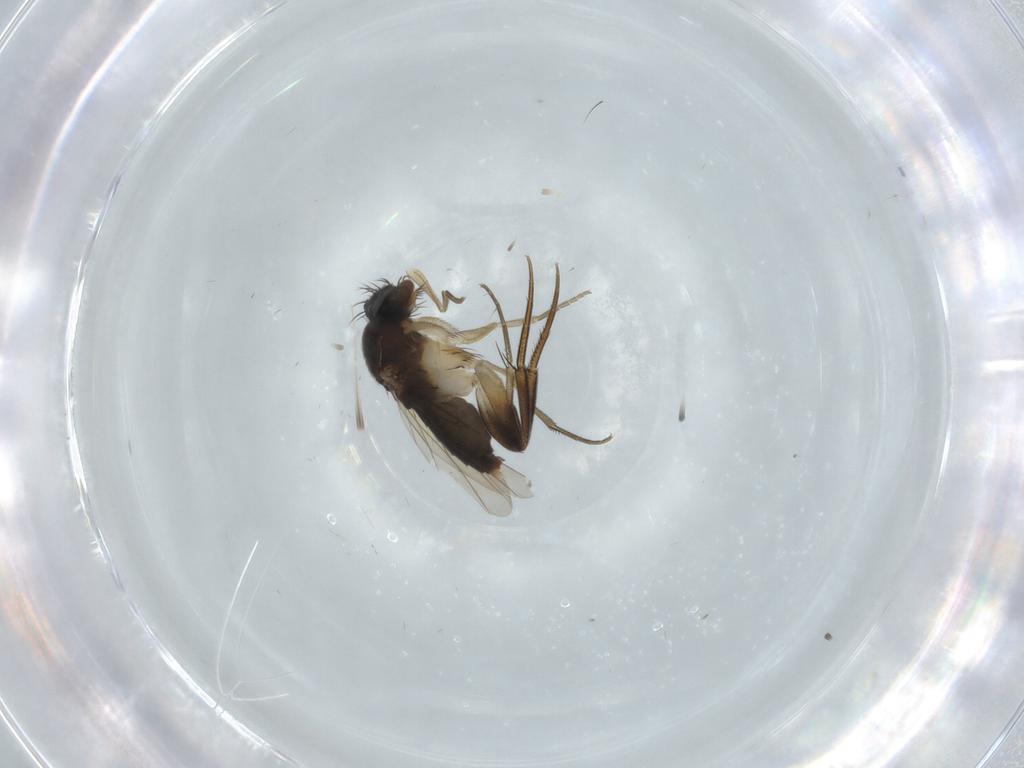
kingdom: Animalia
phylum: Arthropoda
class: Insecta
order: Diptera
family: Phoridae
